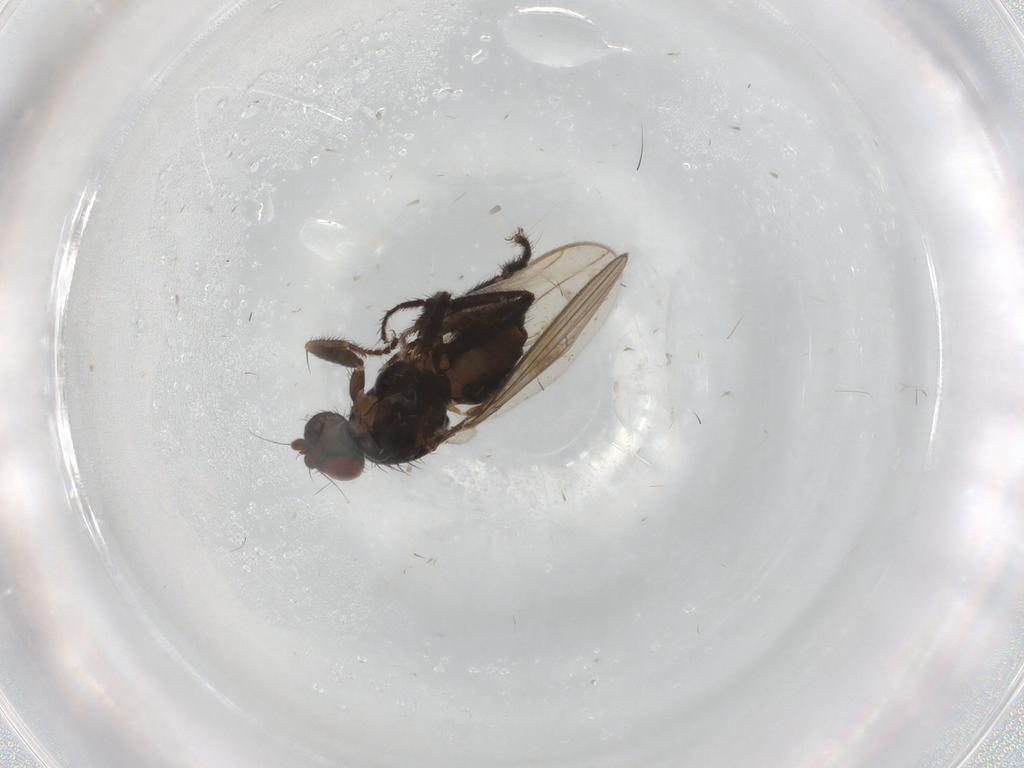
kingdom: Animalia
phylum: Arthropoda
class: Insecta
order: Diptera
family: Sphaeroceridae
